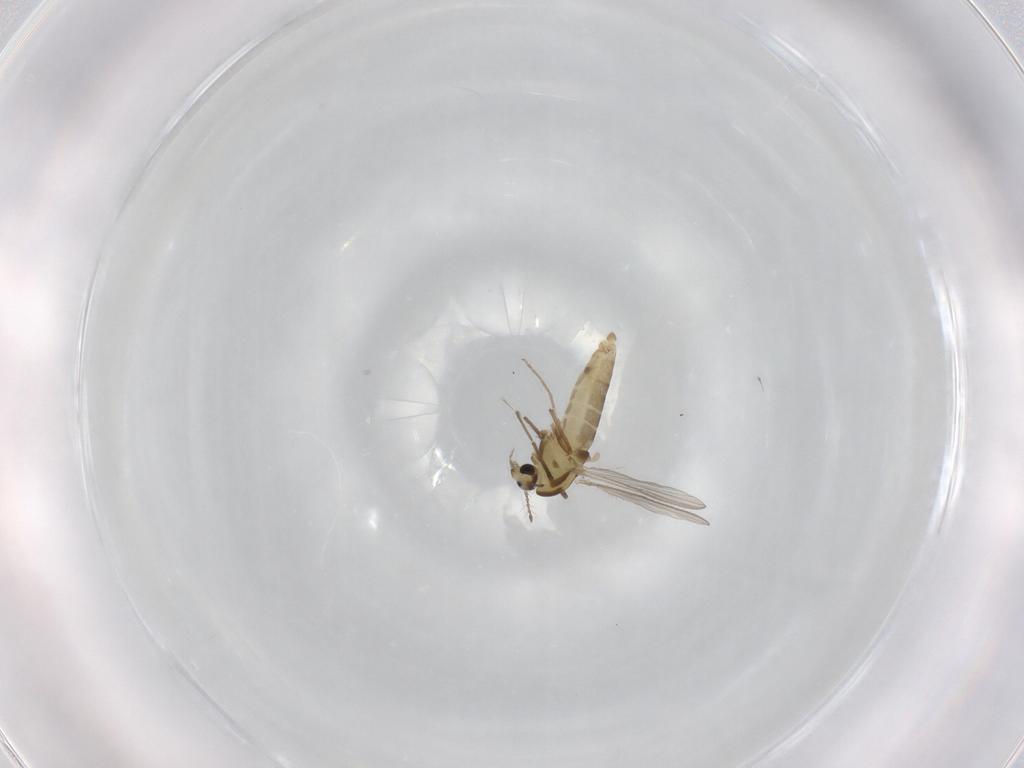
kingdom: Animalia
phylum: Arthropoda
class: Insecta
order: Diptera
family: Chironomidae
